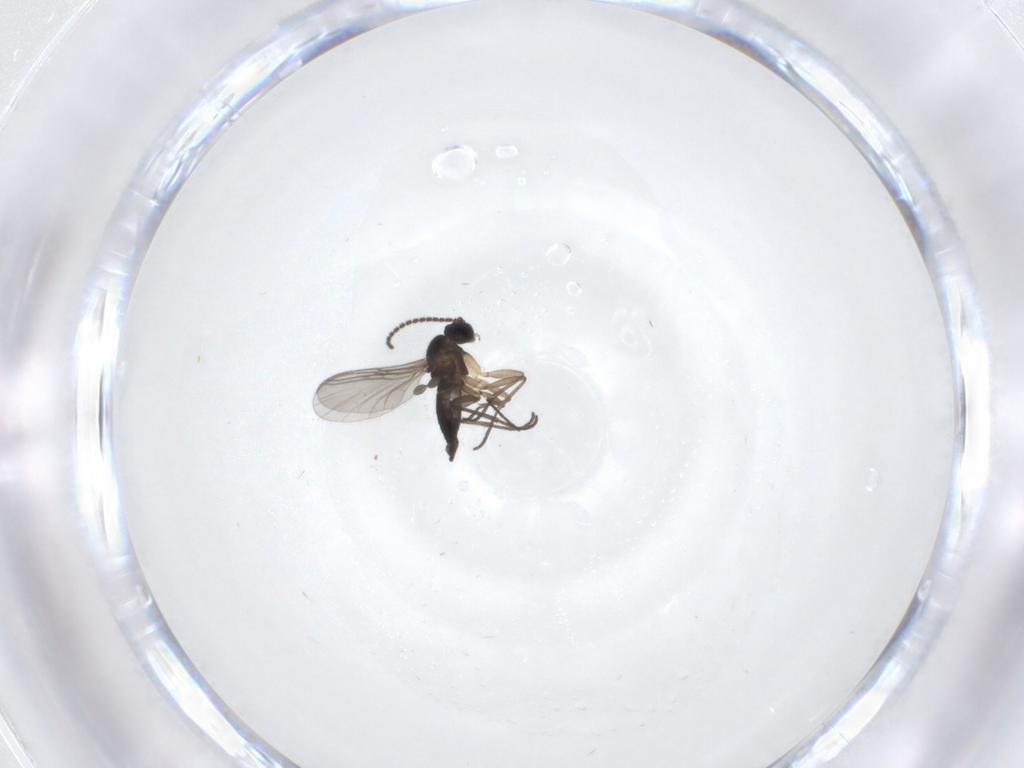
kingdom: Animalia
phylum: Arthropoda
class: Insecta
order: Diptera
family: Sciaridae
